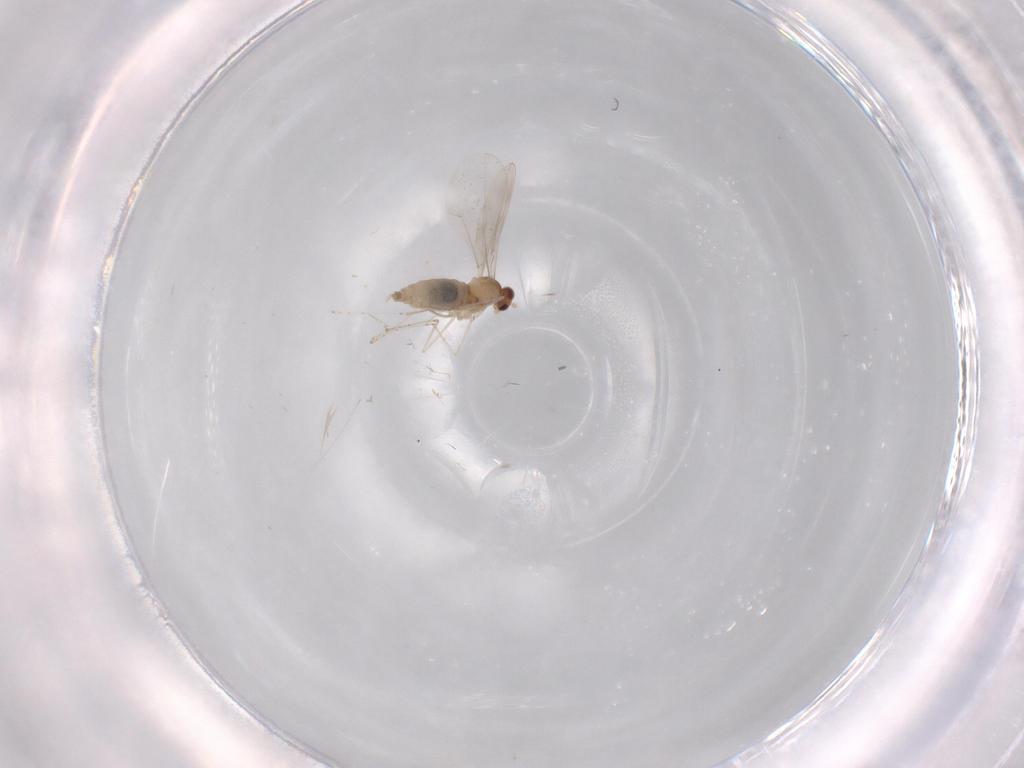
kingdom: Animalia
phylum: Arthropoda
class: Insecta
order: Diptera
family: Cecidomyiidae
